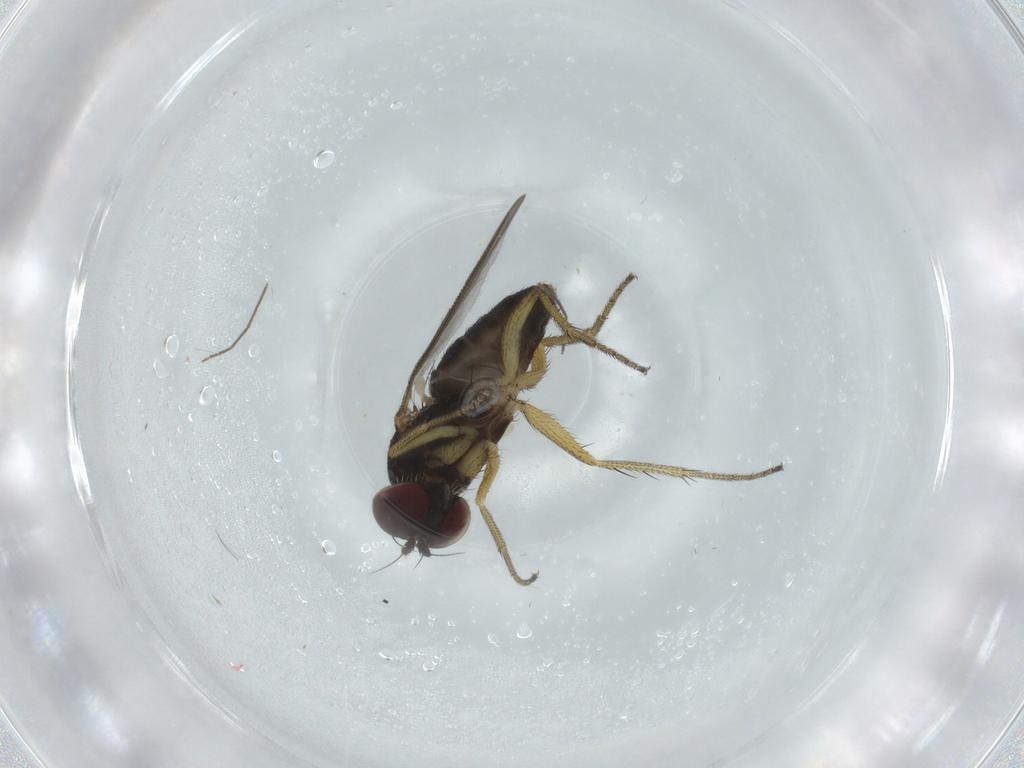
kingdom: Animalia
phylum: Arthropoda
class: Insecta
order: Diptera
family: Dolichopodidae
